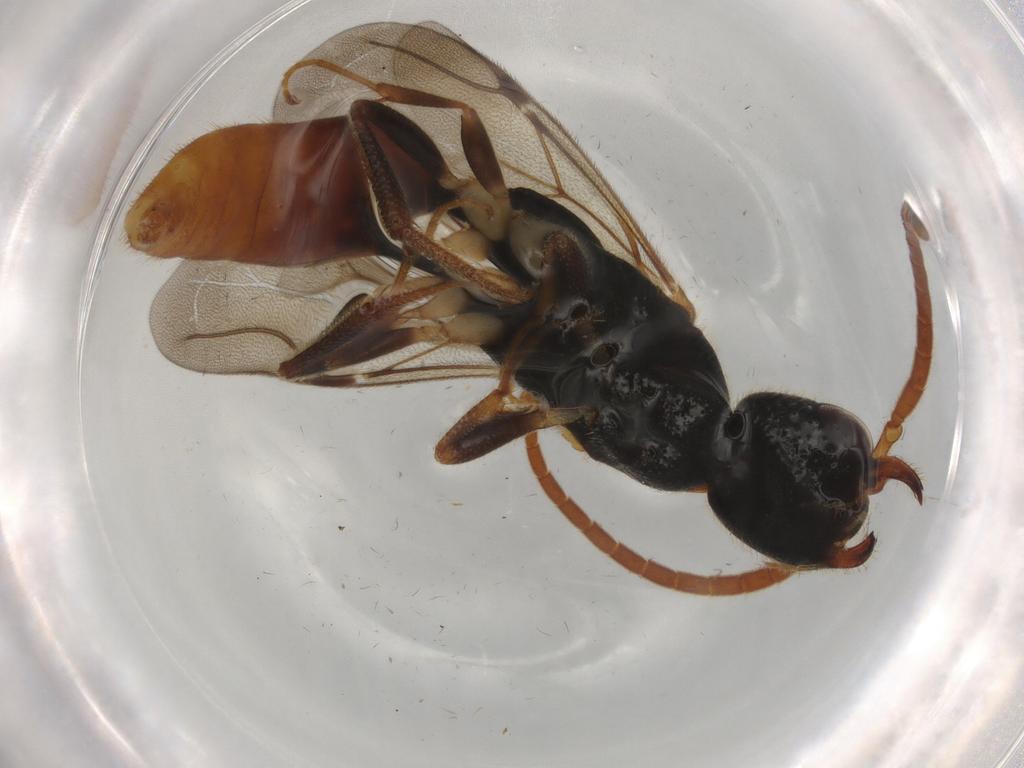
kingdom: Animalia
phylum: Arthropoda
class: Insecta
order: Hymenoptera
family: Bethylidae
